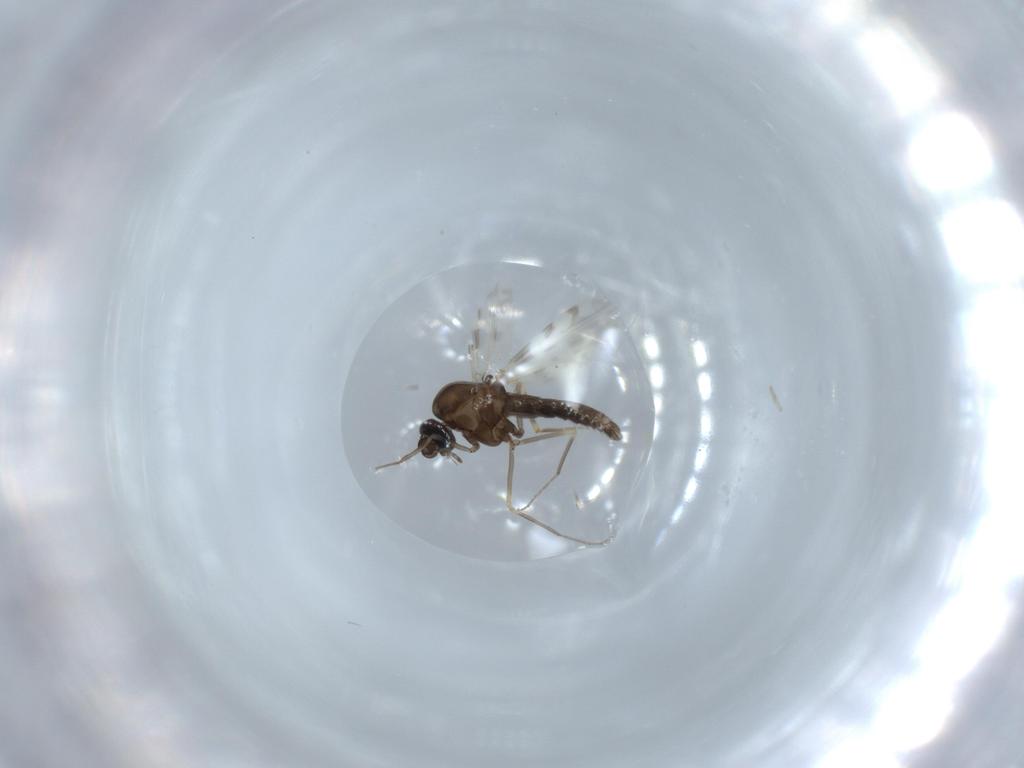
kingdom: Animalia
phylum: Arthropoda
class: Insecta
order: Diptera
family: Ceratopogonidae
